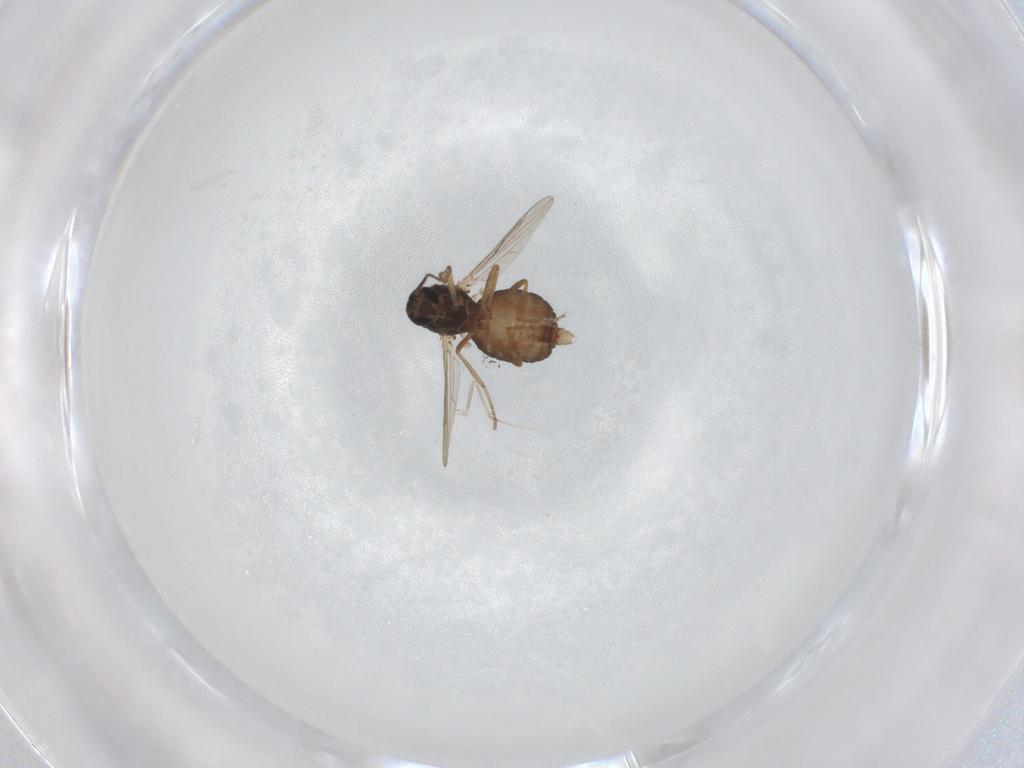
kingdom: Animalia
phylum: Arthropoda
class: Insecta
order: Diptera
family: Ceratopogonidae
